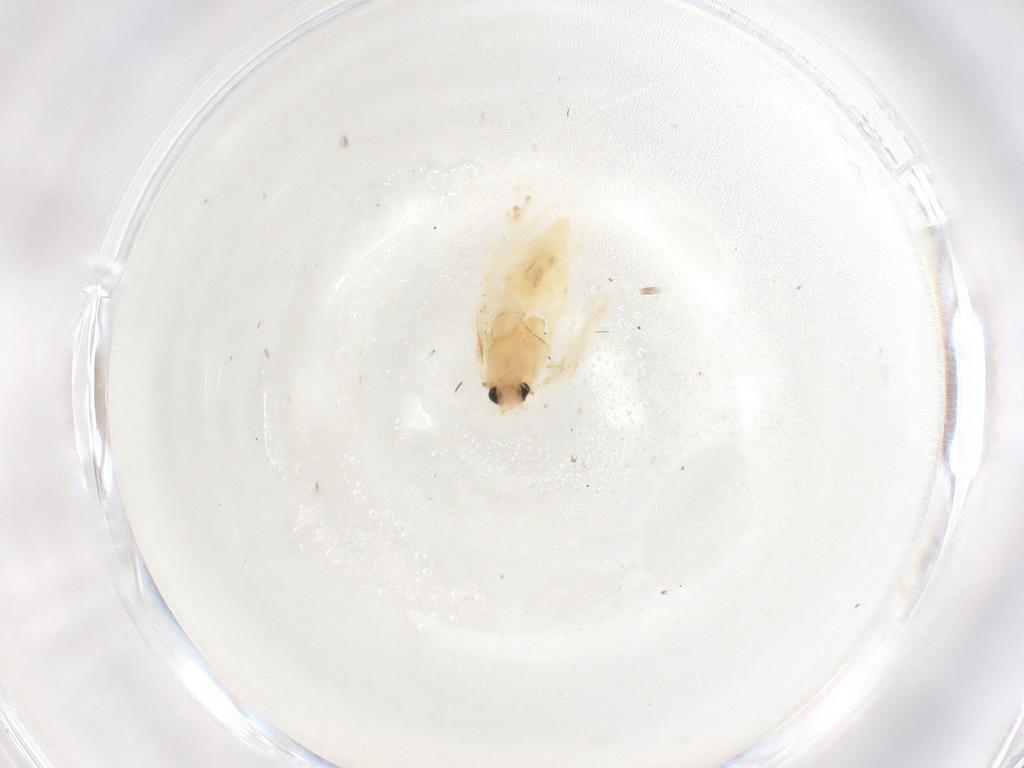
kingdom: Animalia
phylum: Arthropoda
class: Insecta
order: Lepidoptera
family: Nepticulidae
